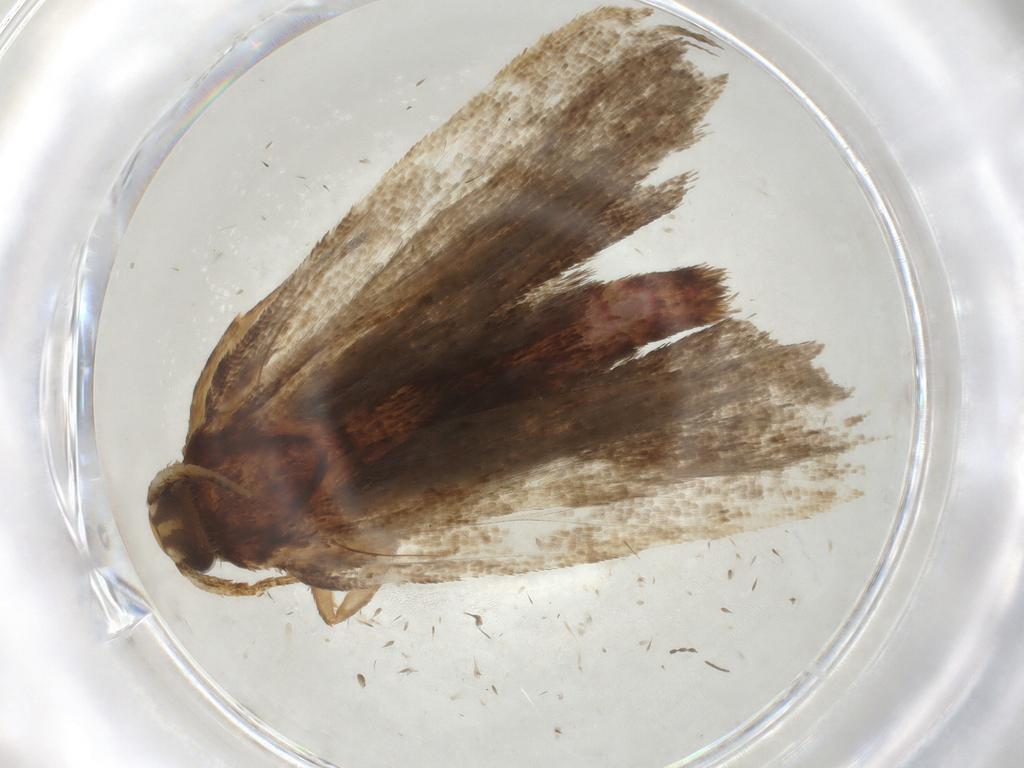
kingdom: Animalia
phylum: Arthropoda
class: Insecta
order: Lepidoptera
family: Autostichidae
